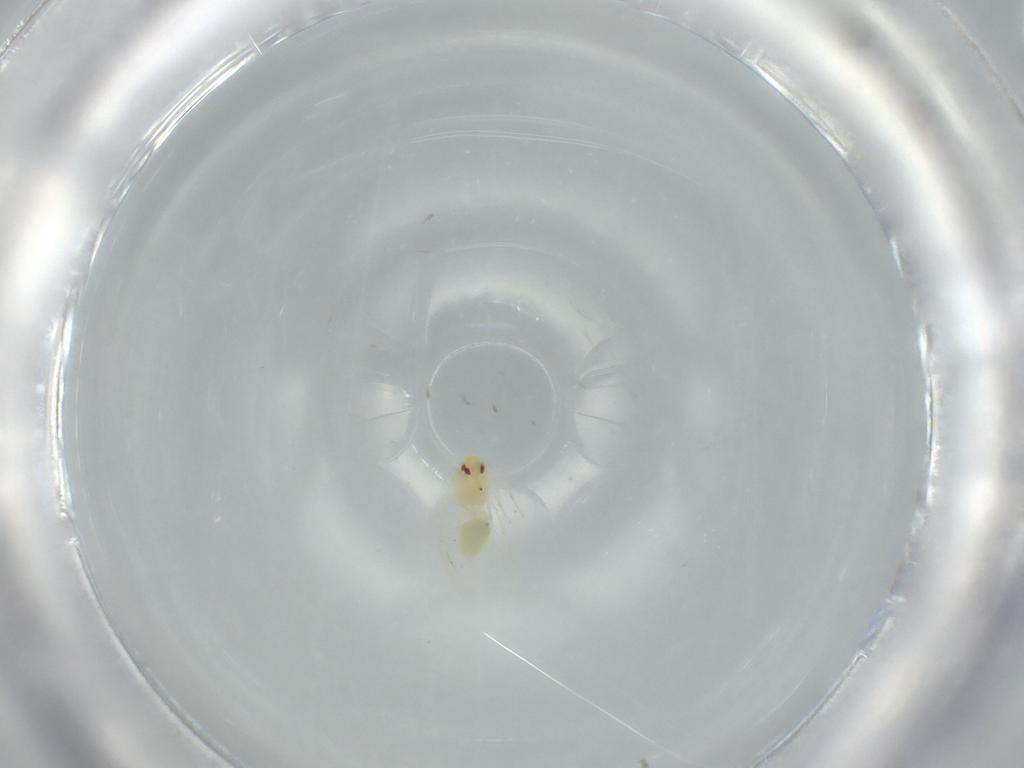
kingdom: Animalia
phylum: Arthropoda
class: Insecta
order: Hemiptera
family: Aleyrodidae
